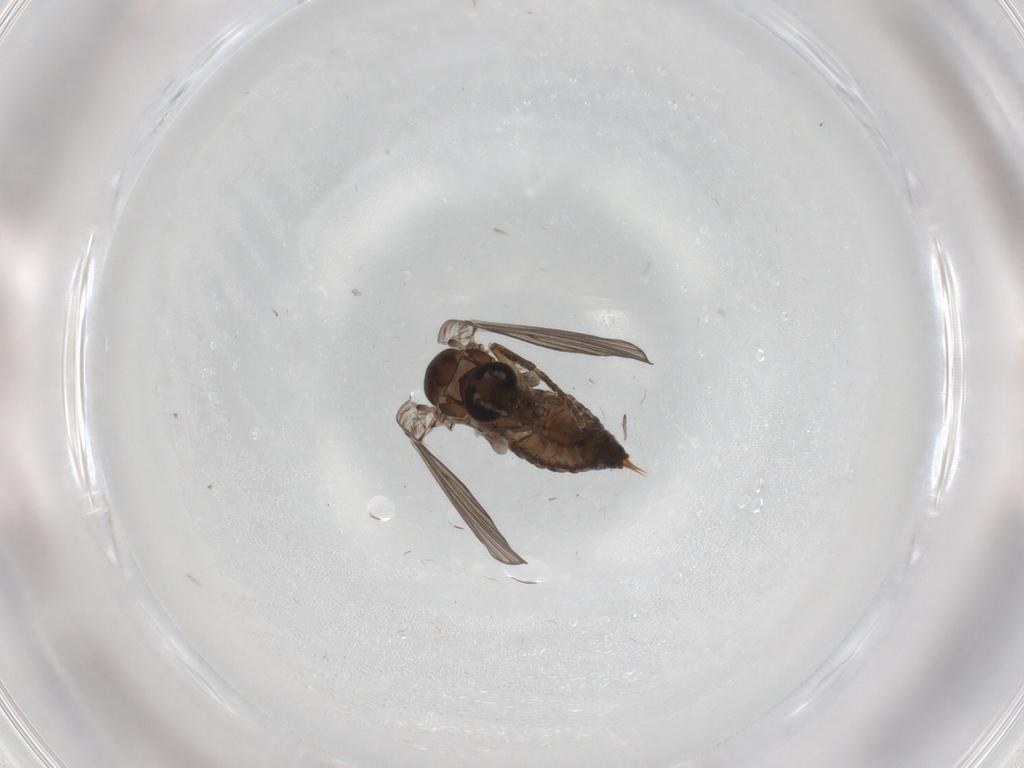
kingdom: Animalia
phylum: Arthropoda
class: Insecta
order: Diptera
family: Psychodidae
